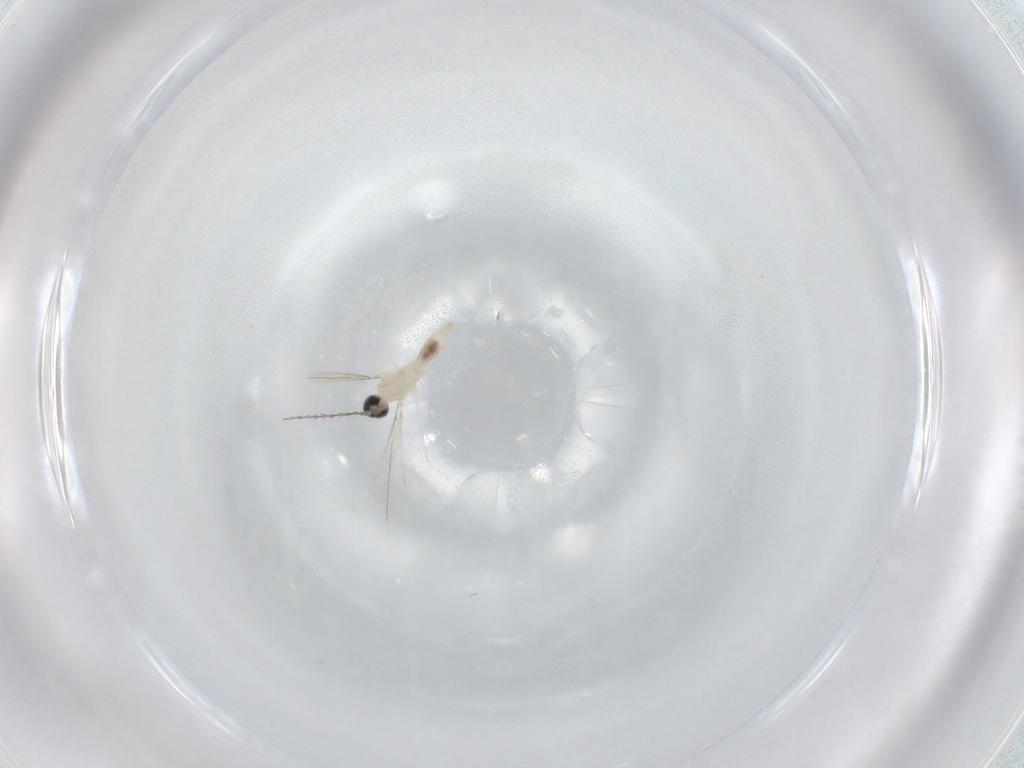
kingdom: Animalia
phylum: Arthropoda
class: Insecta
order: Diptera
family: Cecidomyiidae
